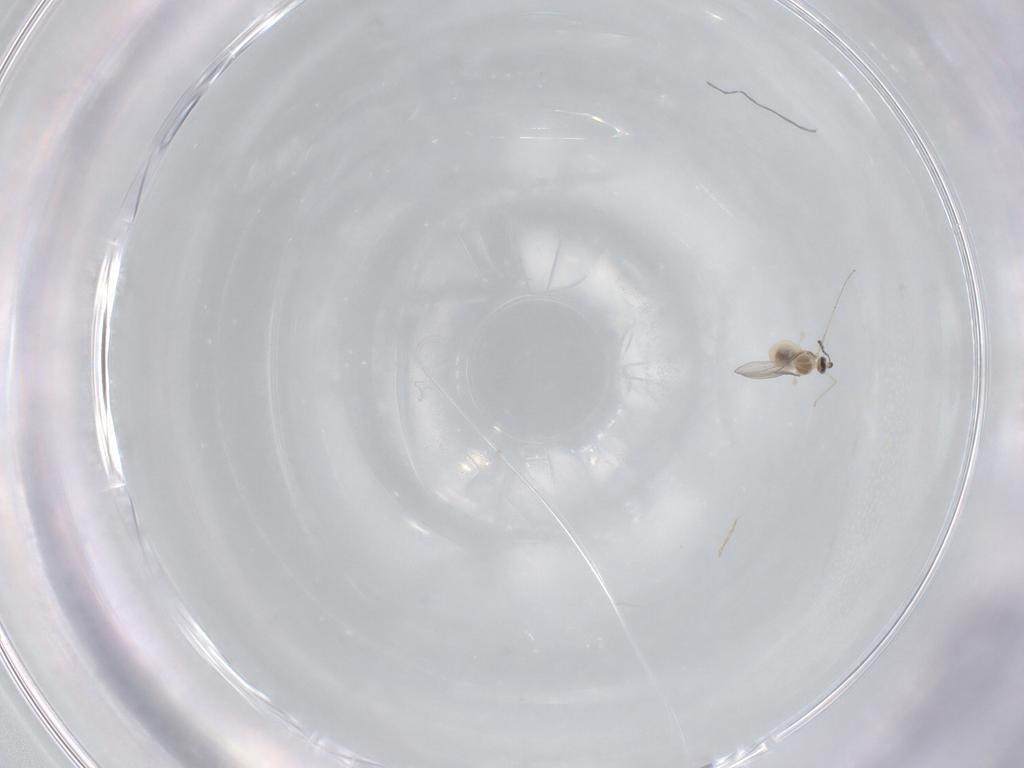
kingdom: Animalia
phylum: Arthropoda
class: Insecta
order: Diptera
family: Cecidomyiidae
